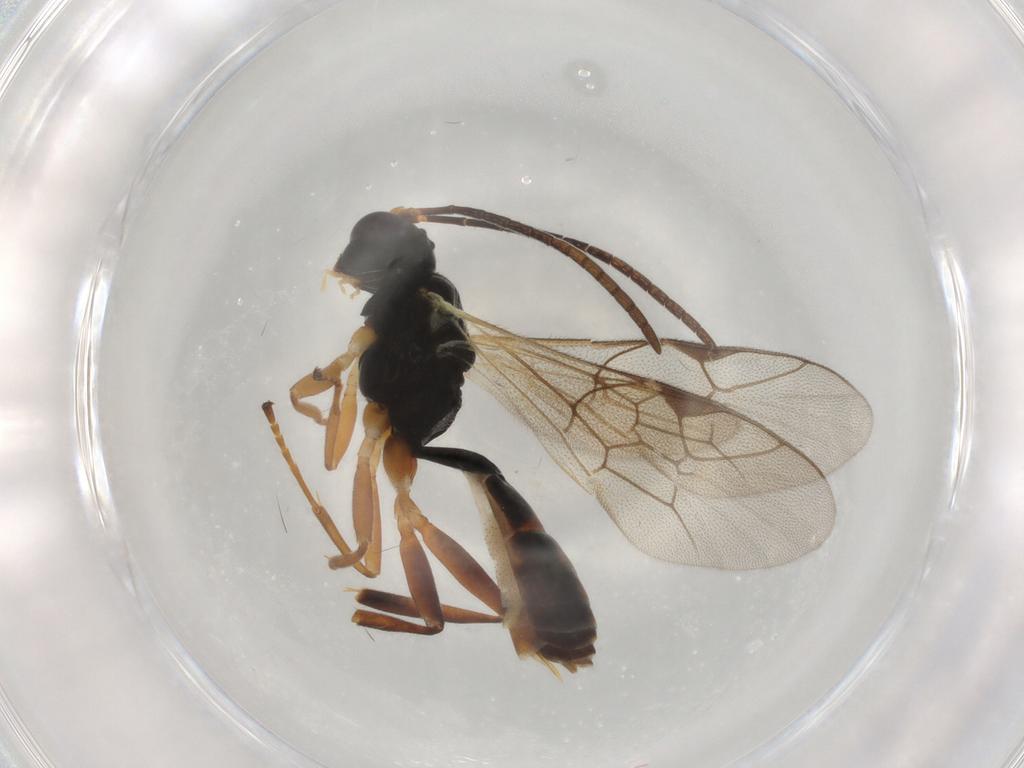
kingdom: Animalia
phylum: Arthropoda
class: Insecta
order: Hymenoptera
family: Ichneumonidae
